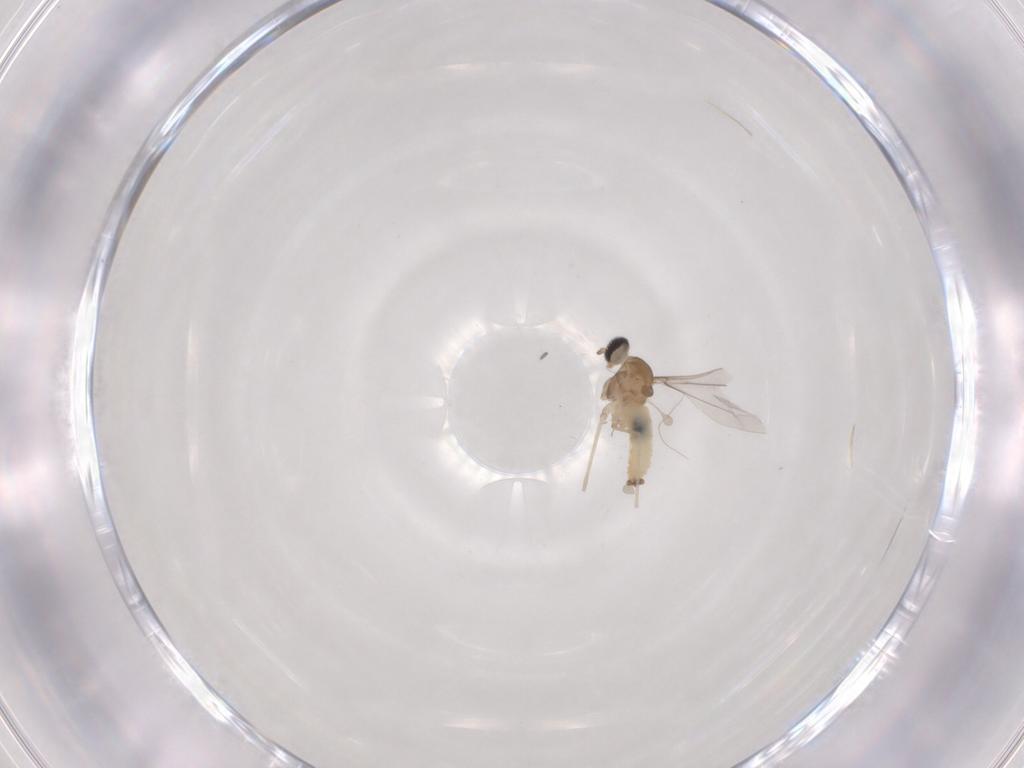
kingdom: Animalia
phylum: Arthropoda
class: Insecta
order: Diptera
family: Cecidomyiidae
